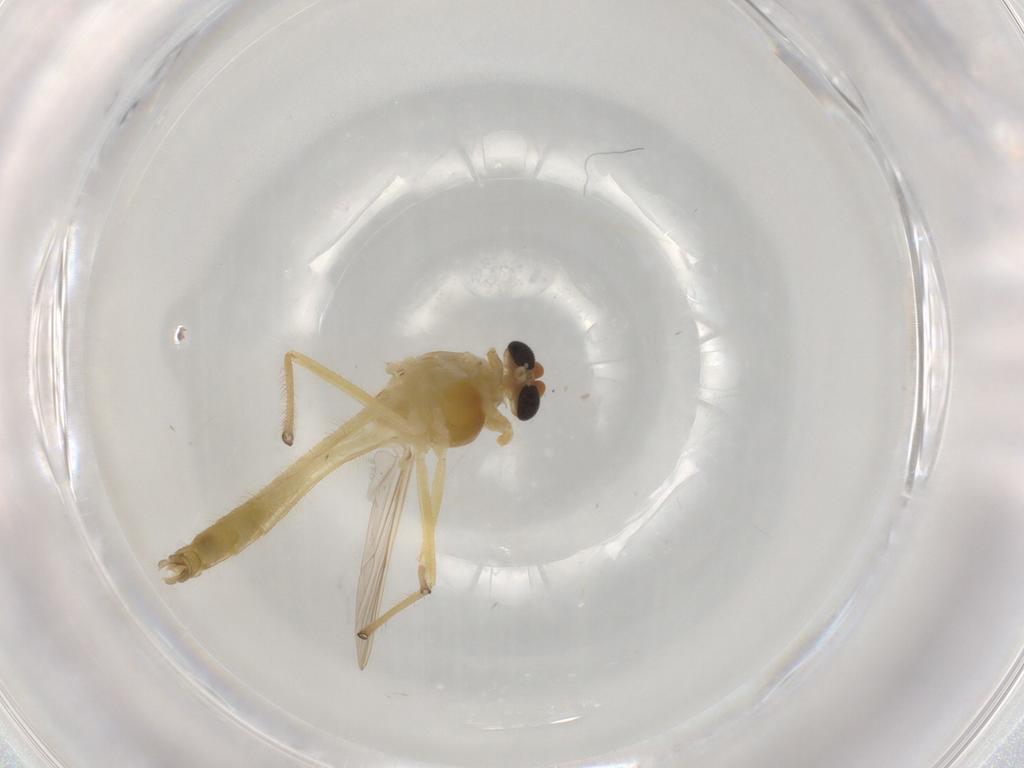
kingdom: Animalia
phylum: Arthropoda
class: Insecta
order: Diptera
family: Chironomidae
